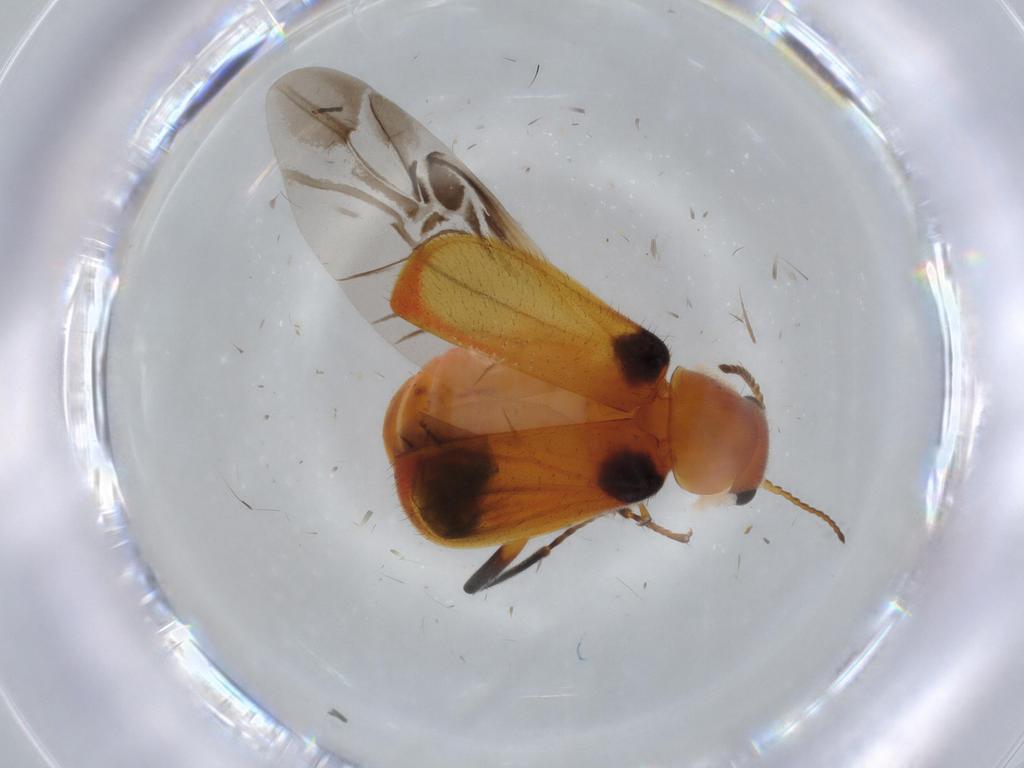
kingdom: Animalia
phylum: Arthropoda
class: Insecta
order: Coleoptera
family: Melyridae
